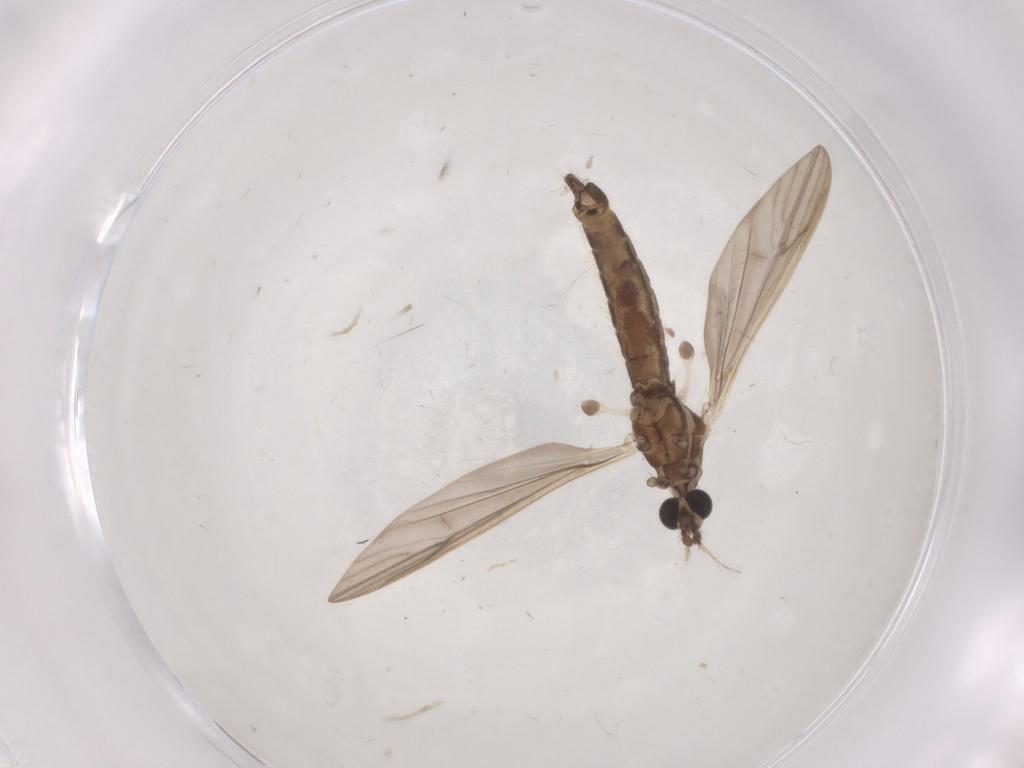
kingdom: Animalia
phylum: Arthropoda
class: Insecta
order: Diptera
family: Limoniidae
